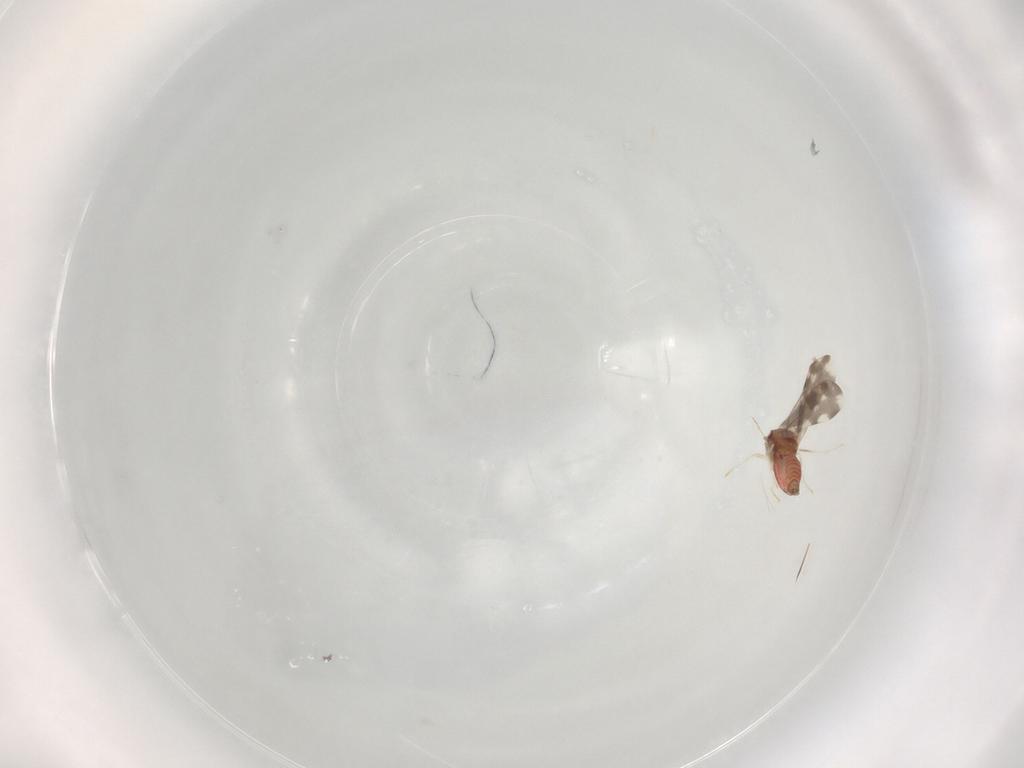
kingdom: Animalia
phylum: Arthropoda
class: Insecta
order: Hemiptera
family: Aleyrodidae
